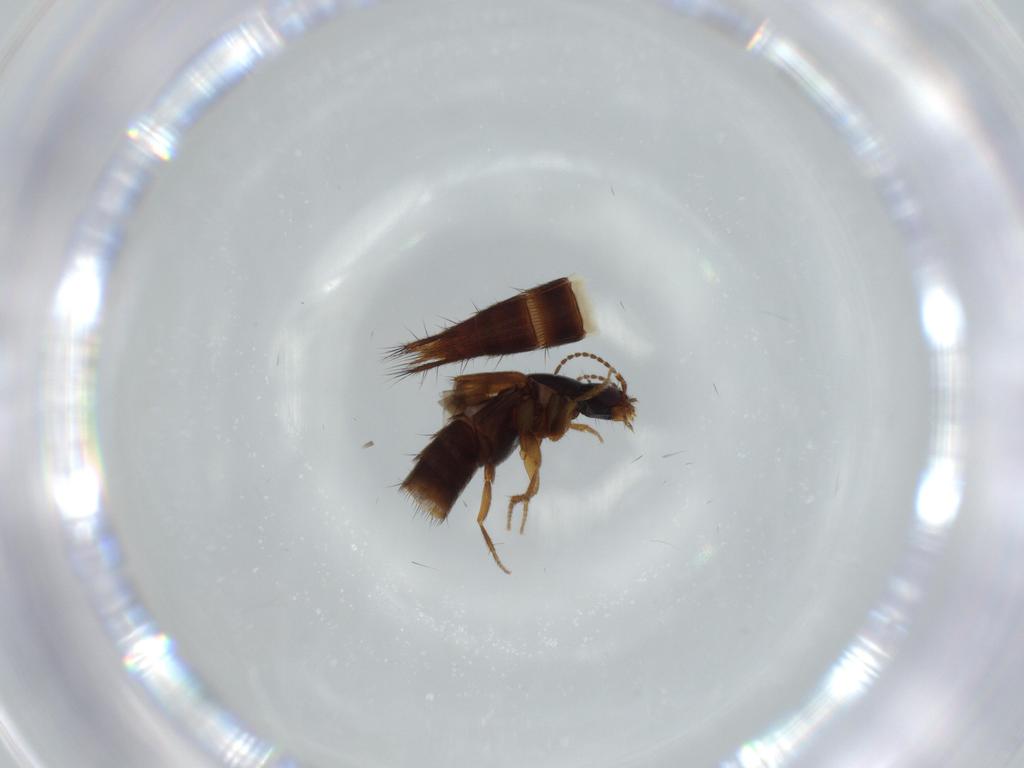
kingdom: Animalia
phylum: Arthropoda
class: Insecta
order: Coleoptera
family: Staphylinidae
